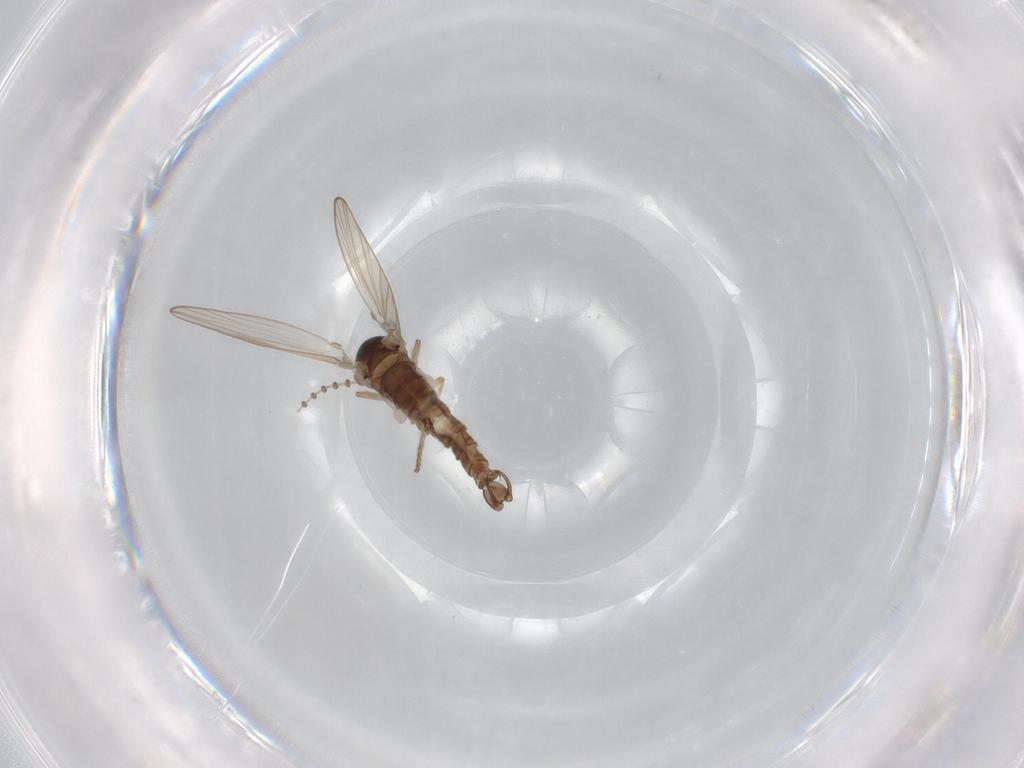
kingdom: Animalia
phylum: Arthropoda
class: Insecta
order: Diptera
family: Psychodidae
